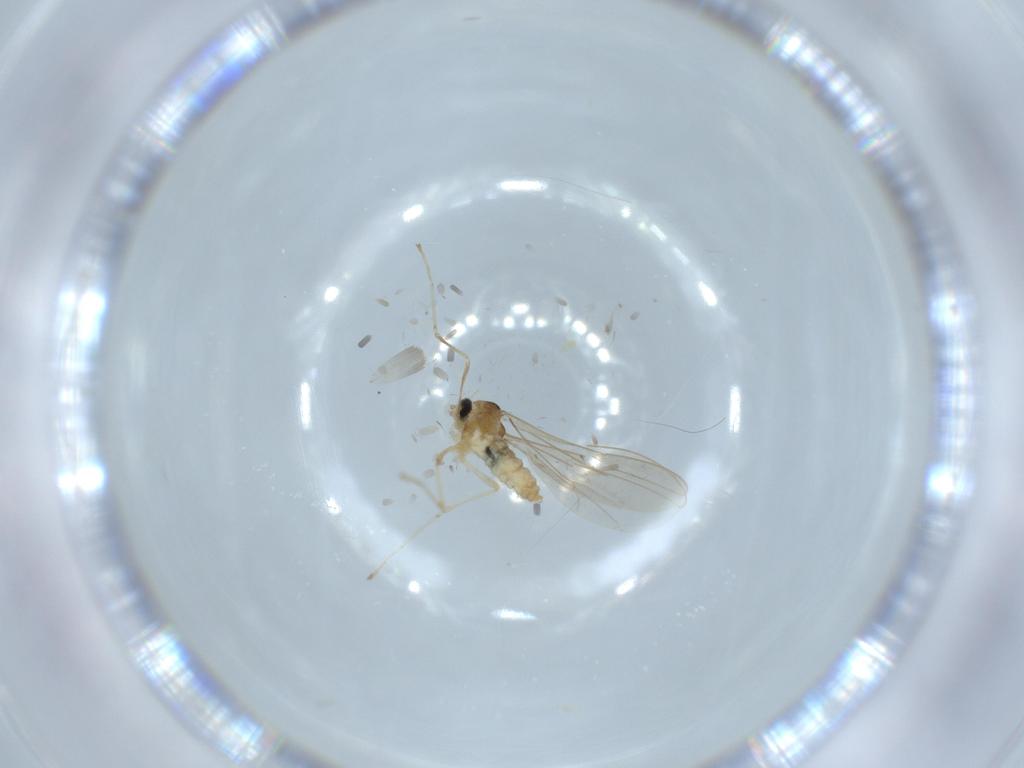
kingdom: Animalia
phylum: Arthropoda
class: Insecta
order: Diptera
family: Cecidomyiidae
